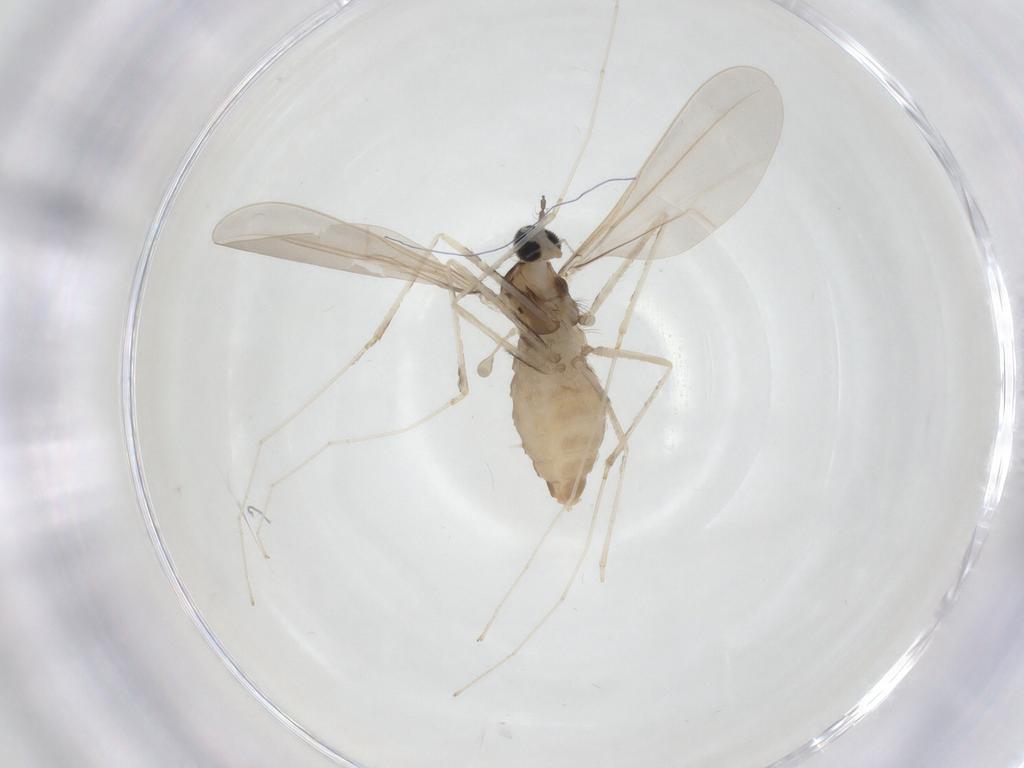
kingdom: Animalia
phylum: Arthropoda
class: Insecta
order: Diptera
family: Cecidomyiidae
